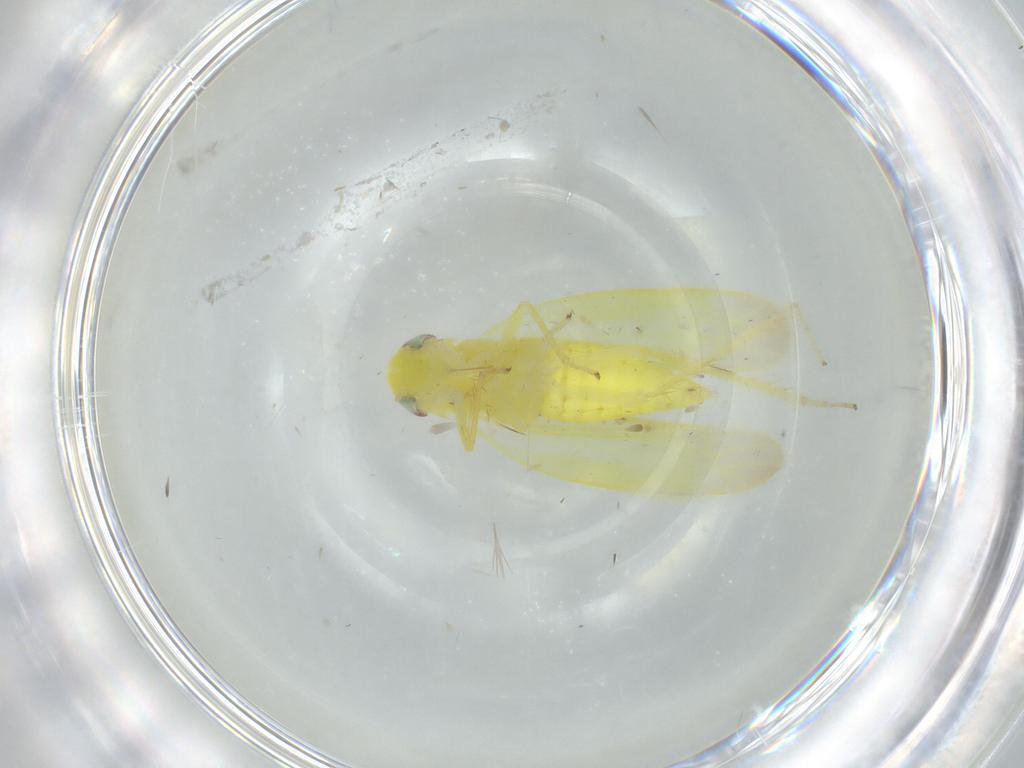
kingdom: Animalia
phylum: Arthropoda
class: Insecta
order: Hemiptera
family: Cicadellidae
